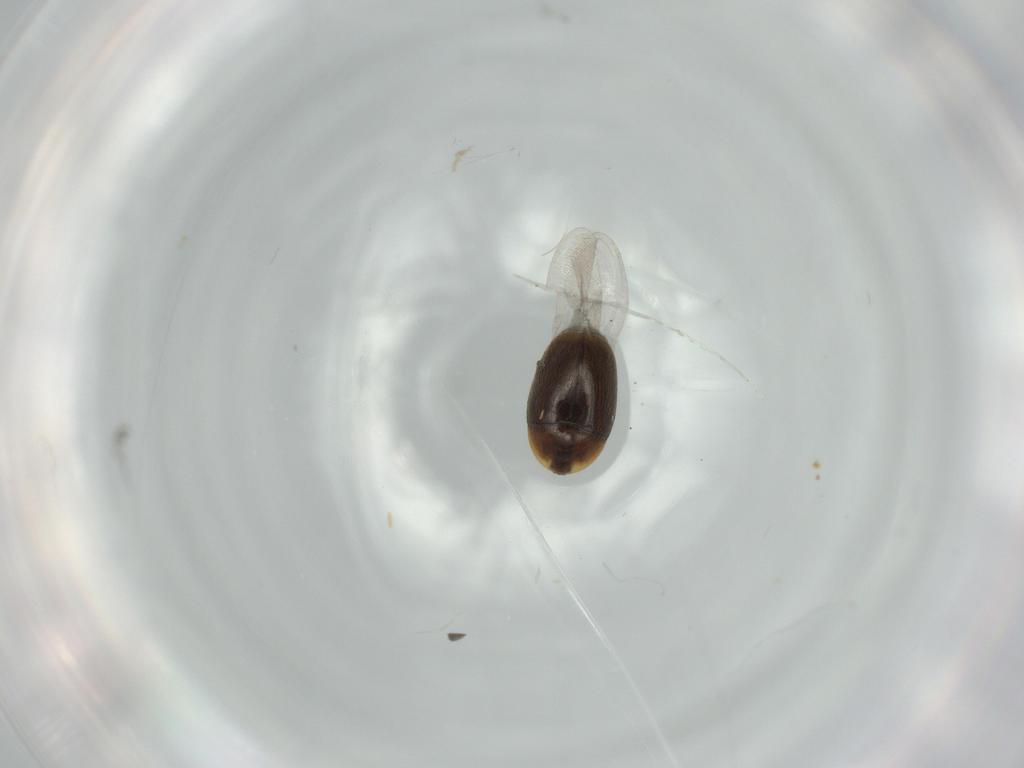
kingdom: Animalia
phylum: Arthropoda
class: Insecta
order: Coleoptera
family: Corylophidae
